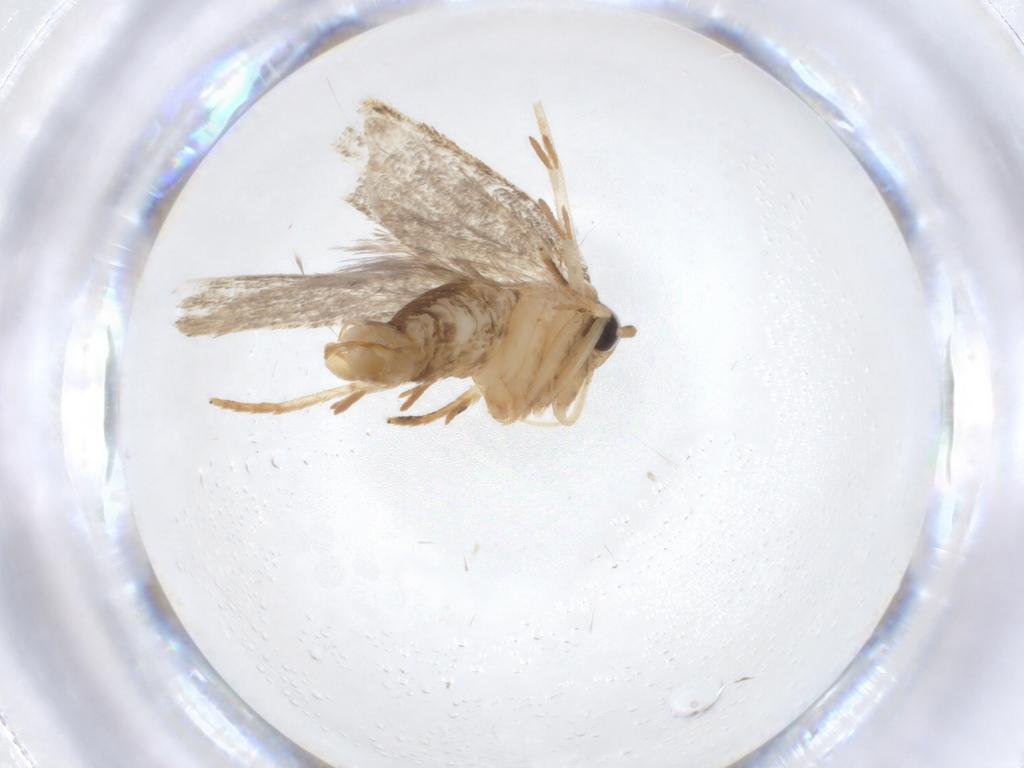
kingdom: Animalia
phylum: Arthropoda
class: Insecta
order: Lepidoptera
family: Oecophoridae
